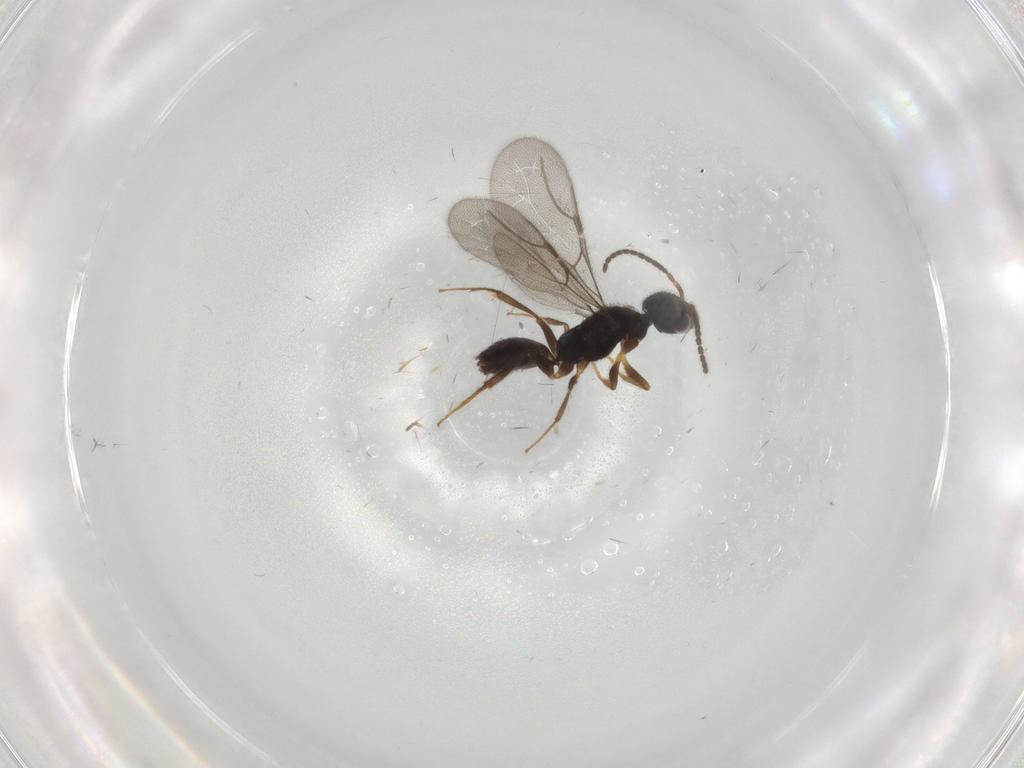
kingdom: Animalia
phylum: Arthropoda
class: Insecta
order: Hymenoptera
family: Bethylidae
